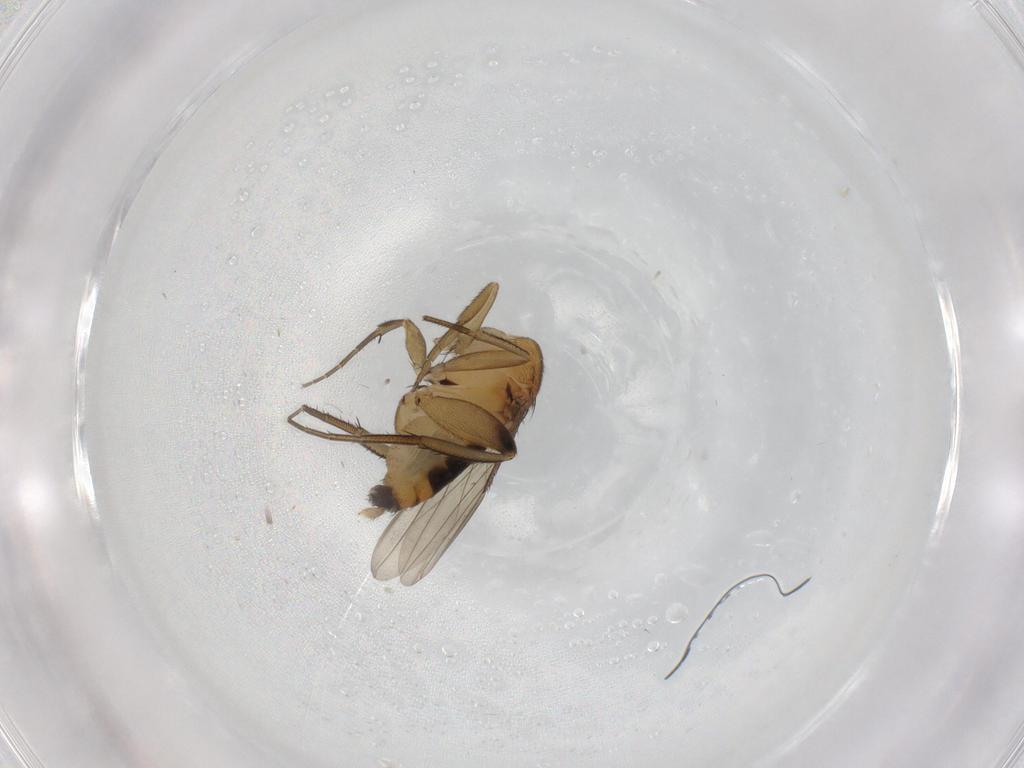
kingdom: Animalia
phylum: Arthropoda
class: Insecta
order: Diptera
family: Phoridae
